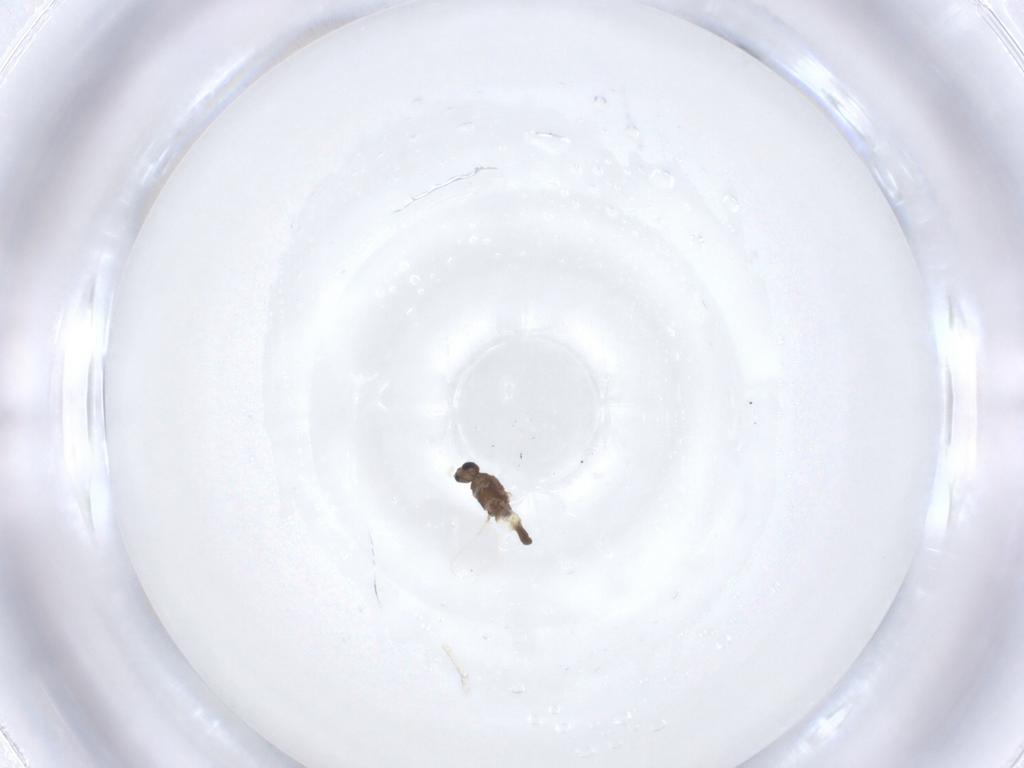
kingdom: Animalia
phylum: Arthropoda
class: Insecta
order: Diptera
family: Chironomidae
